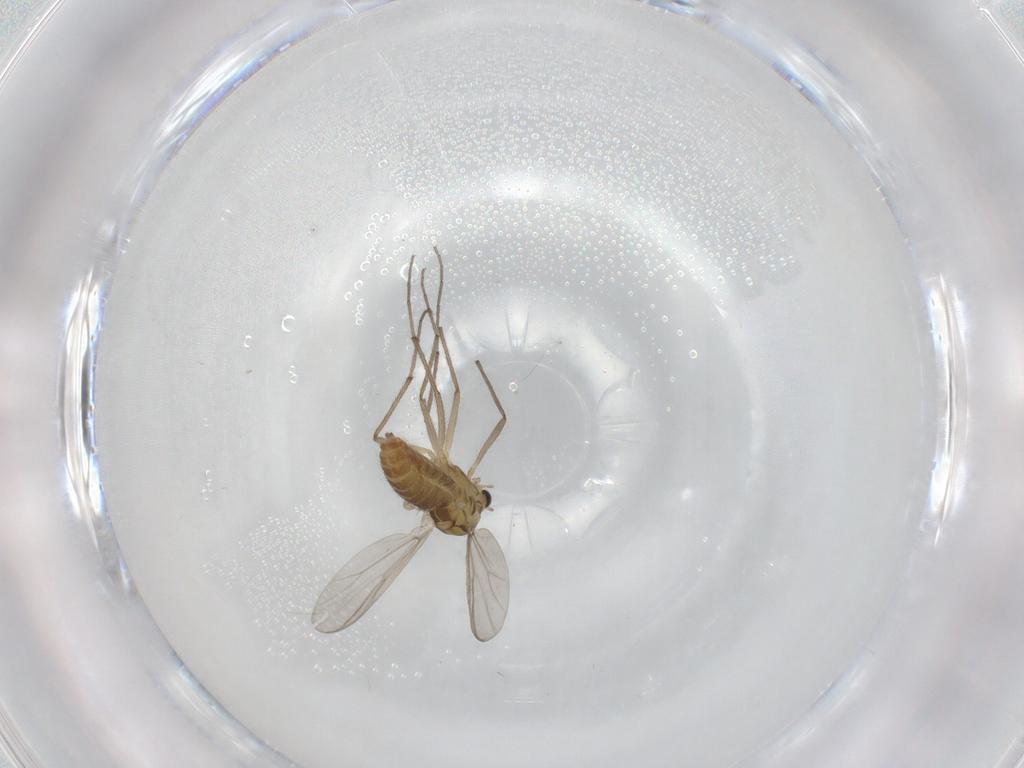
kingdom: Animalia
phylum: Arthropoda
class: Insecta
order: Diptera
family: Chironomidae
